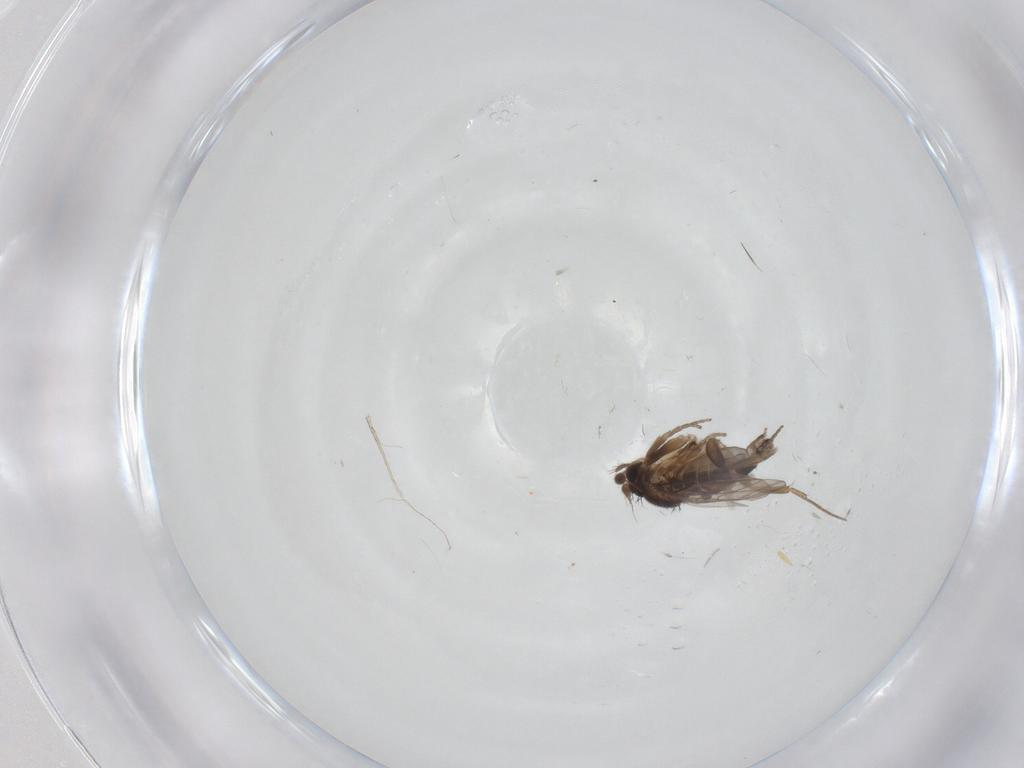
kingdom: Animalia
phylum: Arthropoda
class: Insecta
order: Diptera
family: Phoridae
